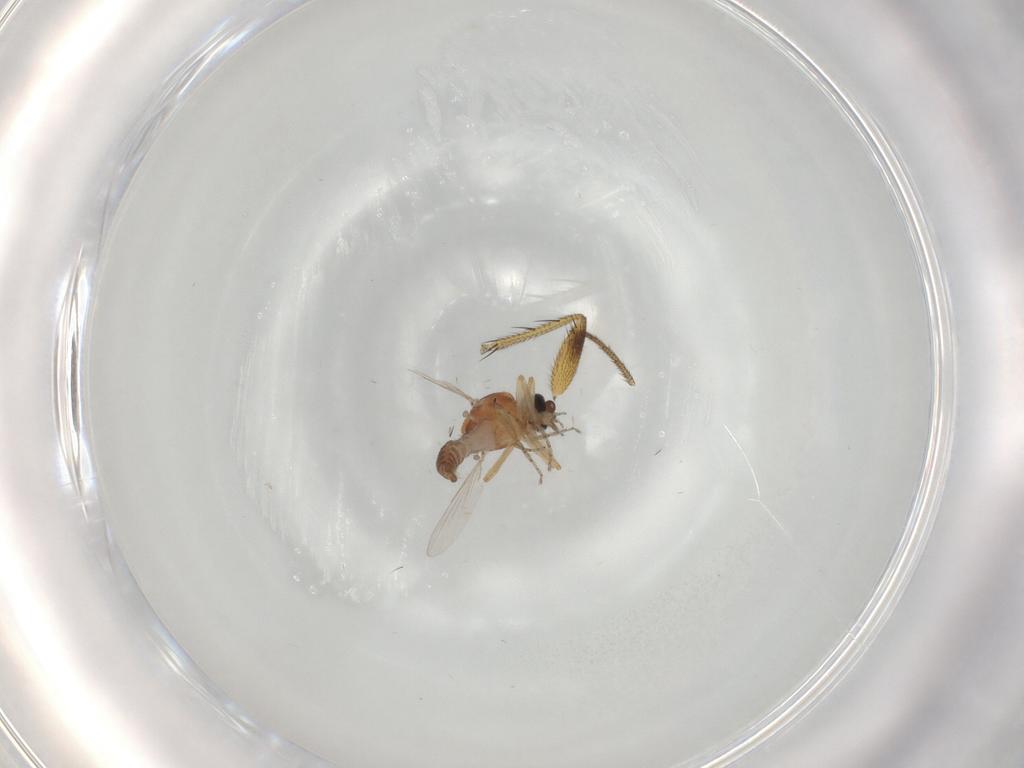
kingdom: Animalia
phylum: Arthropoda
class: Insecta
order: Diptera
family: Ceratopogonidae
